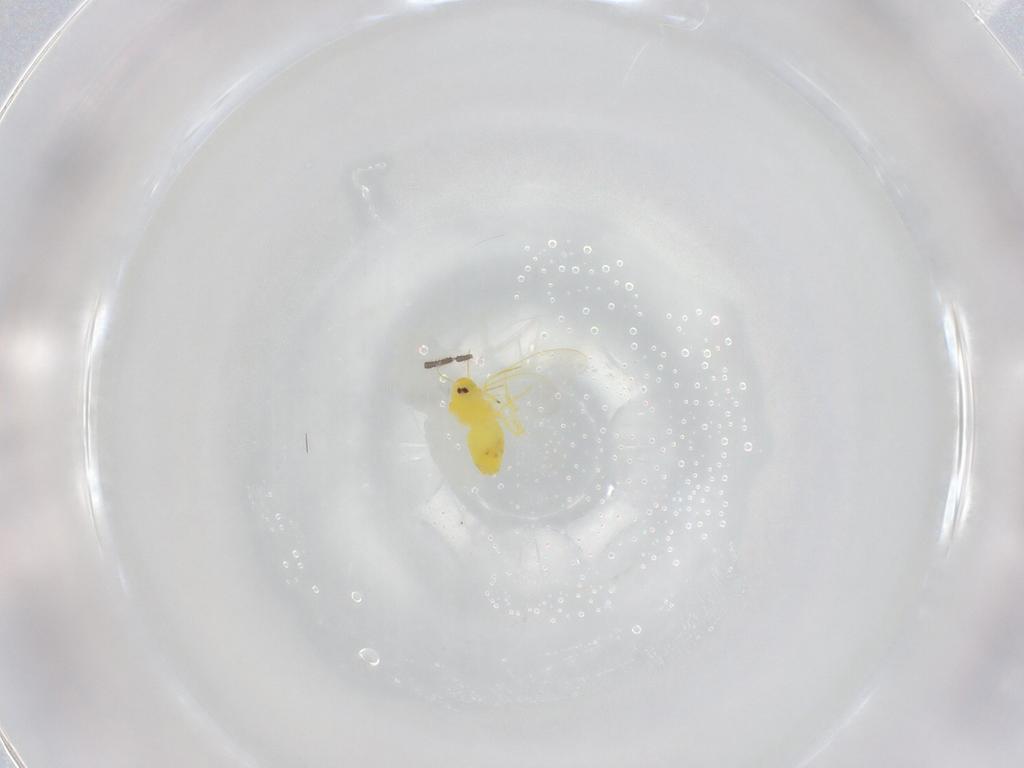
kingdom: Animalia
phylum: Arthropoda
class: Insecta
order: Hemiptera
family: Aleyrodidae
